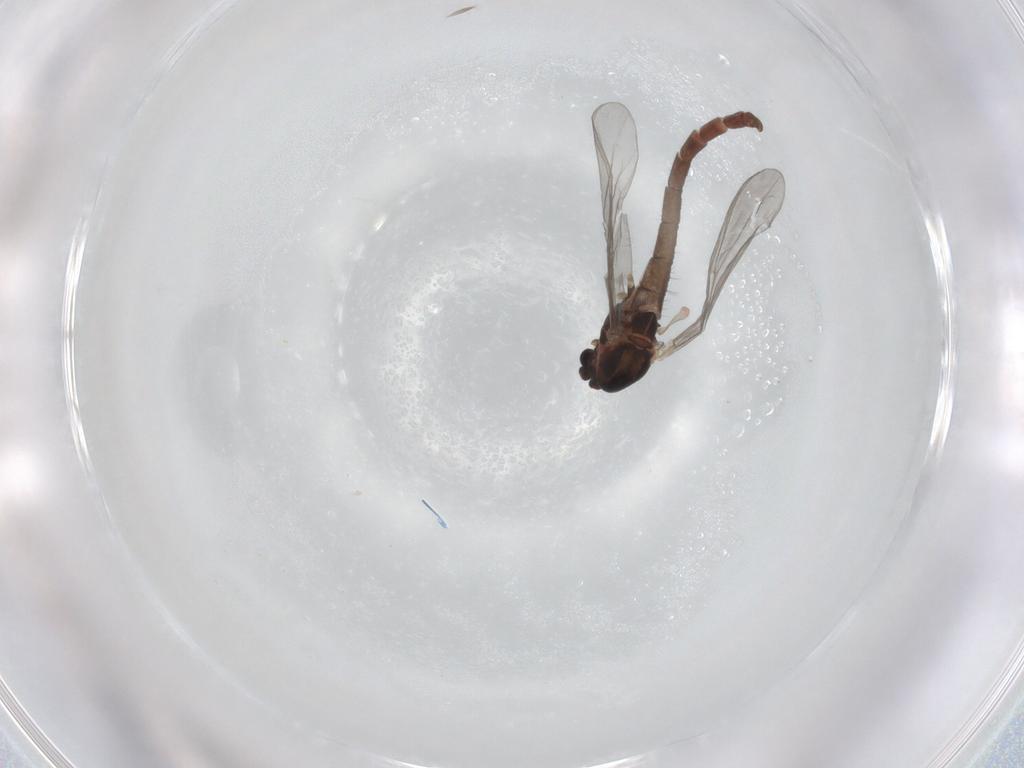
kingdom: Animalia
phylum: Arthropoda
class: Insecta
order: Diptera
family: Chironomidae
